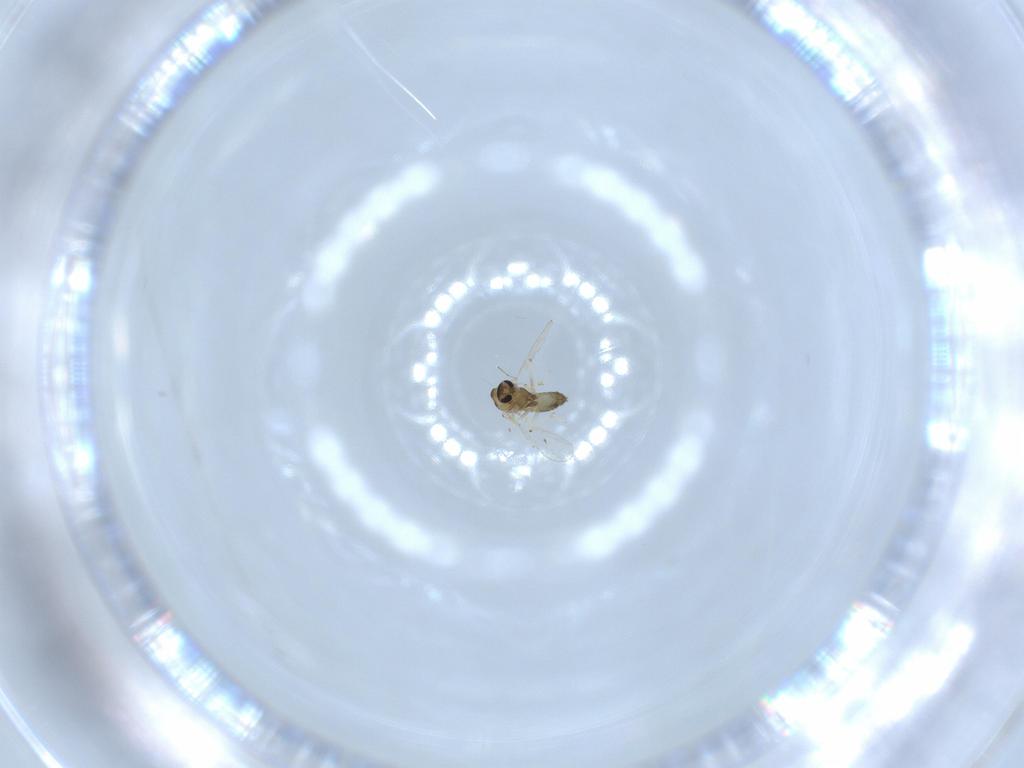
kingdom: Animalia
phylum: Arthropoda
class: Insecta
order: Diptera
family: Chironomidae
